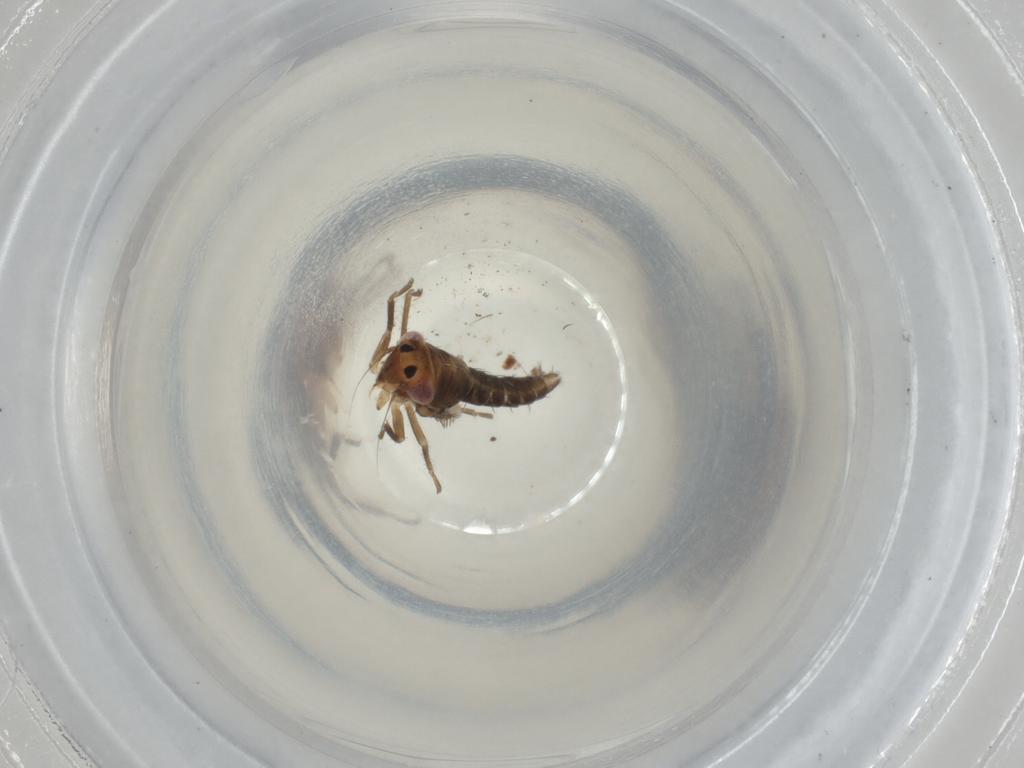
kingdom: Animalia
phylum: Arthropoda
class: Insecta
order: Hemiptera
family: Cicadellidae
